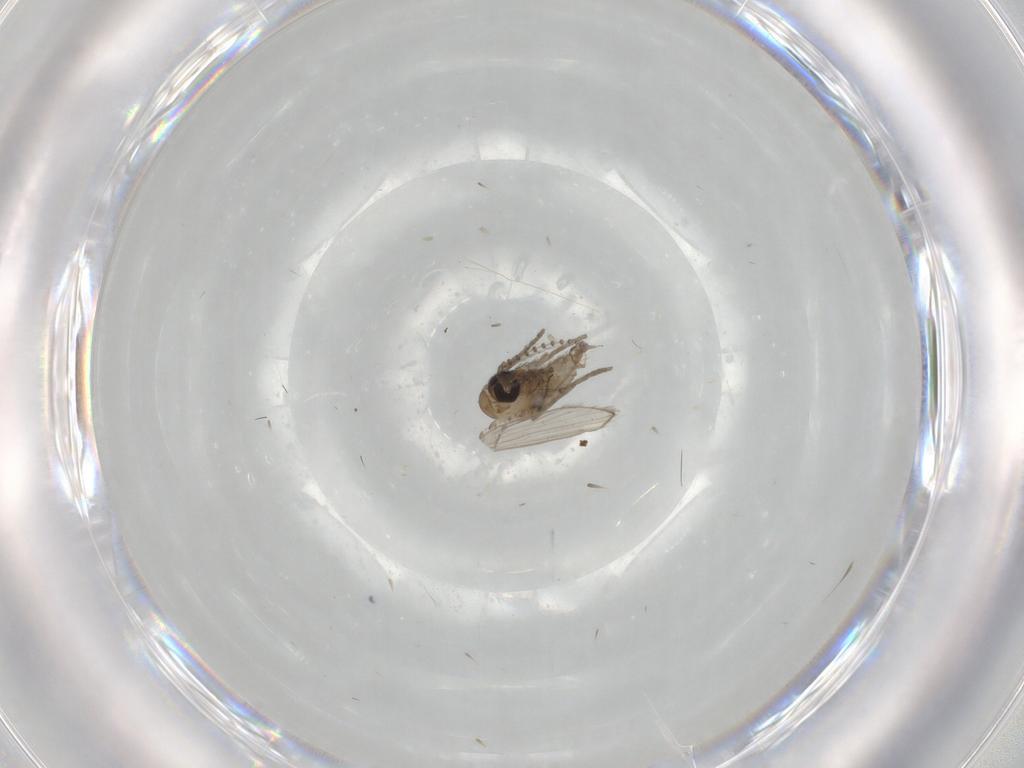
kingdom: Animalia
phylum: Arthropoda
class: Insecta
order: Diptera
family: Psychodidae
